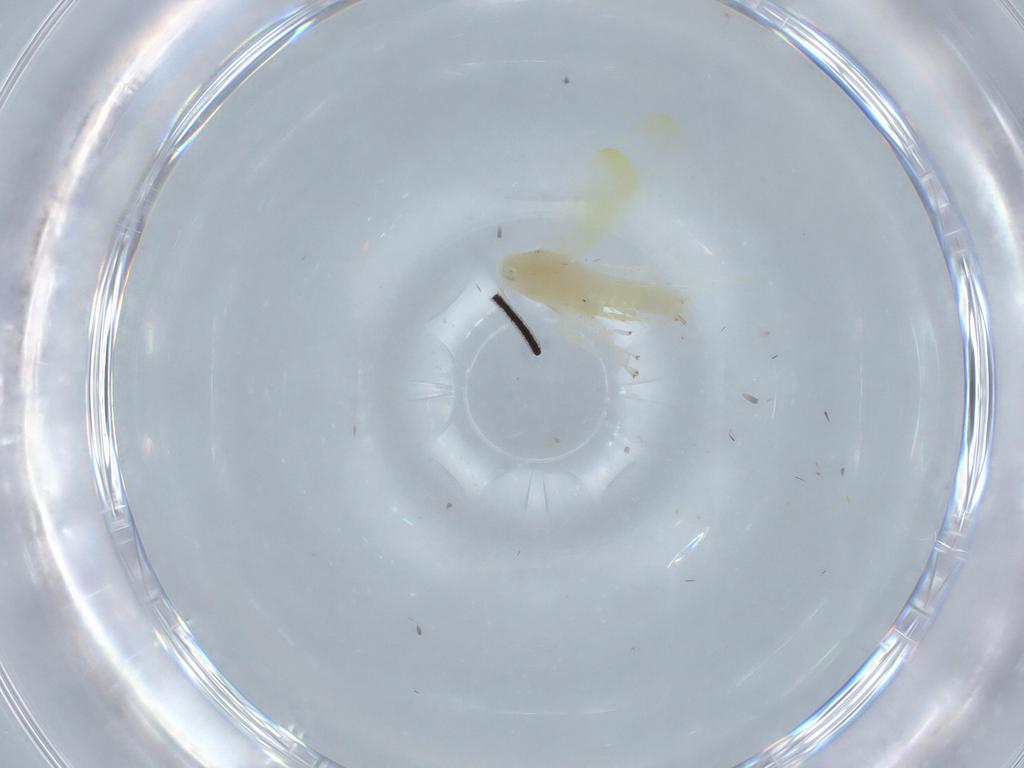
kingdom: Animalia
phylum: Arthropoda
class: Insecta
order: Hemiptera
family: Cicadellidae
